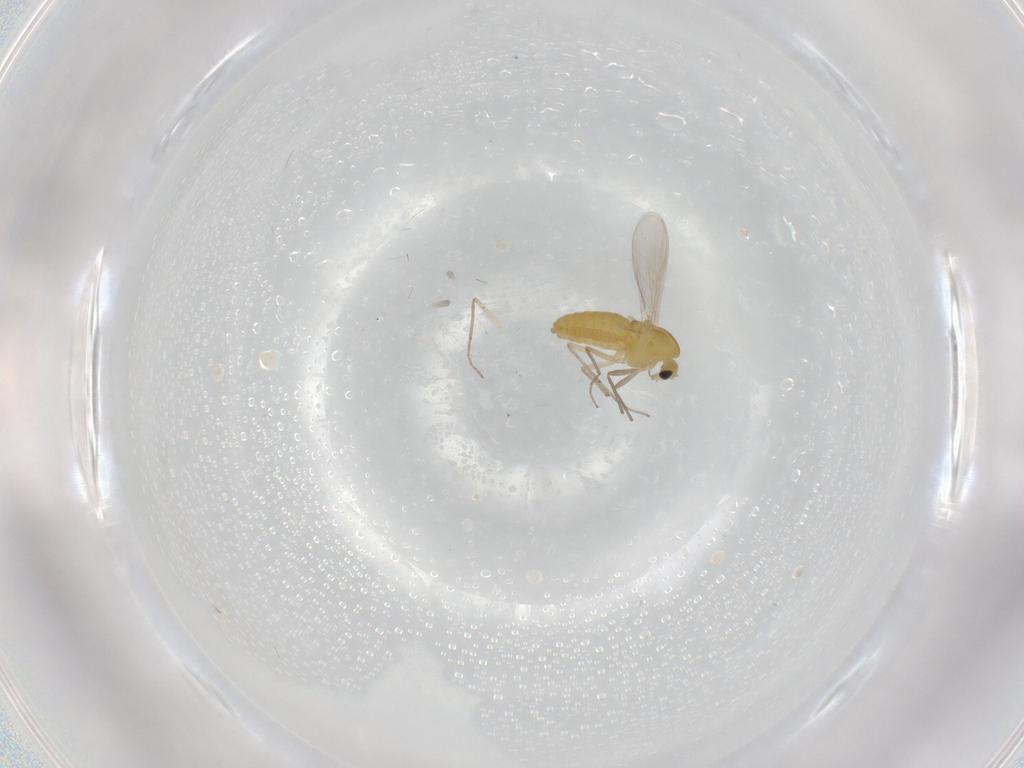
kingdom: Animalia
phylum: Arthropoda
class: Insecta
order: Diptera
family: Chironomidae
